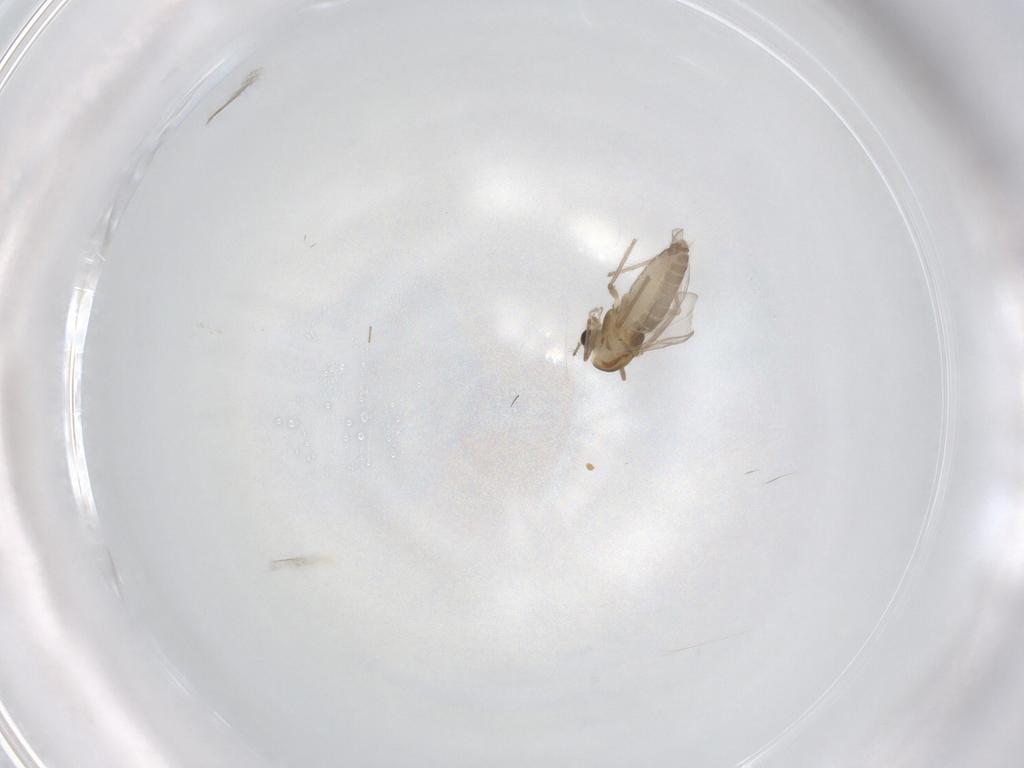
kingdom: Animalia
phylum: Arthropoda
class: Insecta
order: Diptera
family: Chironomidae
